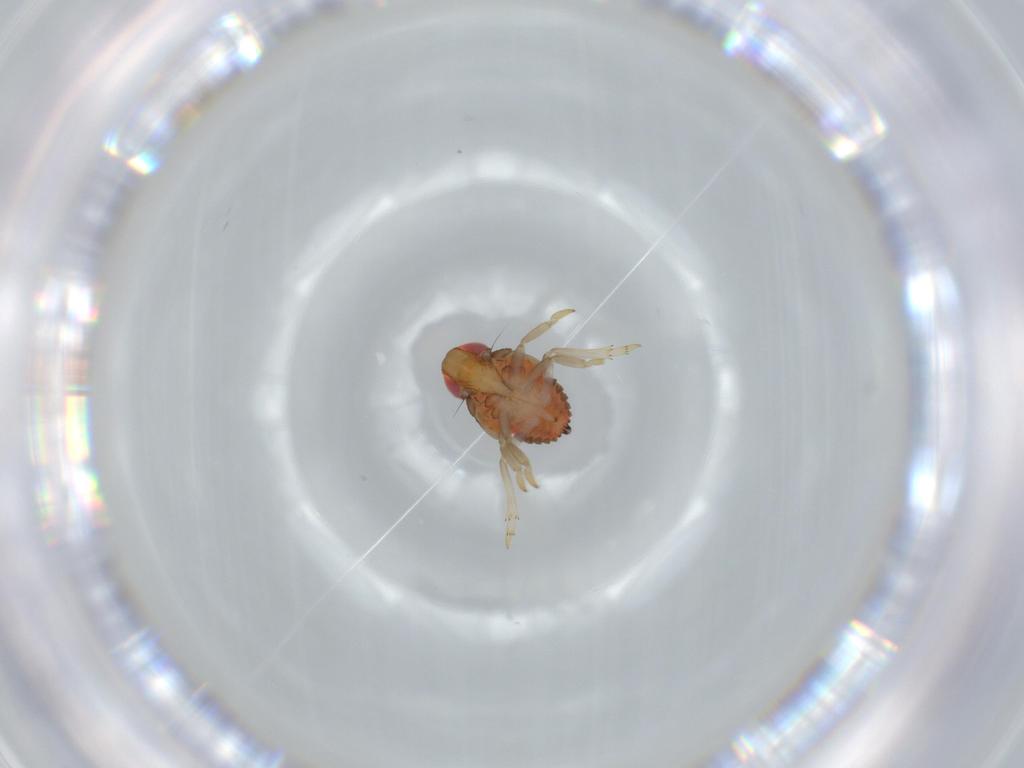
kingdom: Animalia
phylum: Arthropoda
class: Insecta
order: Hemiptera
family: Issidae
